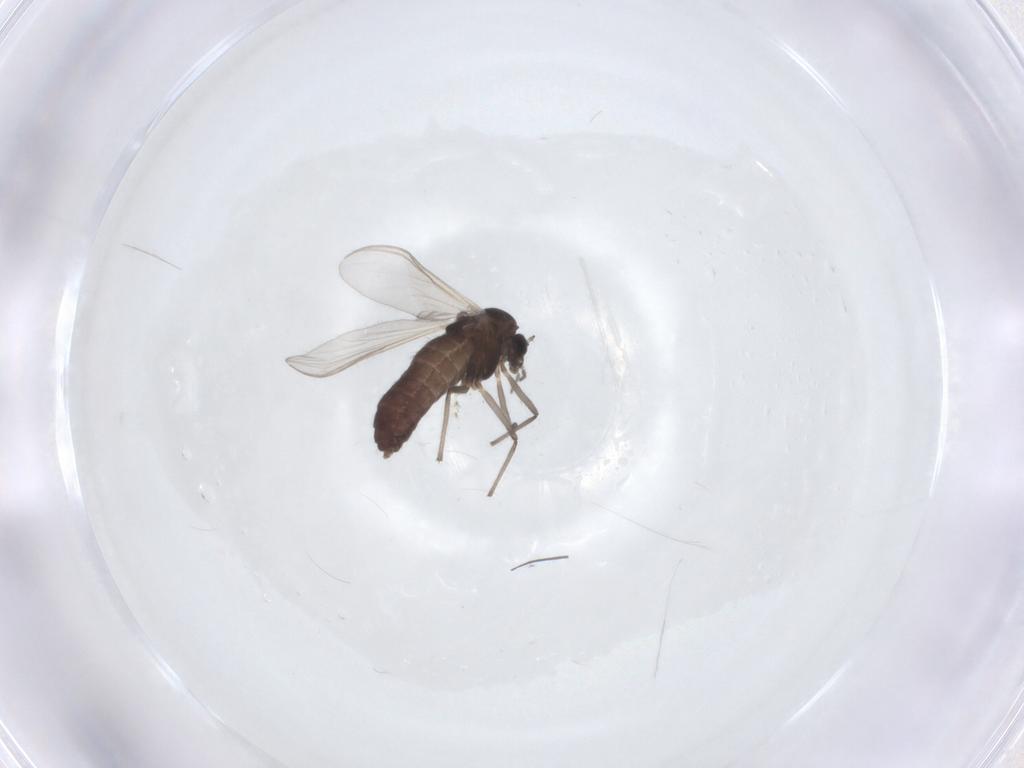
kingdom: Animalia
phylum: Arthropoda
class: Insecta
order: Diptera
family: Chironomidae
